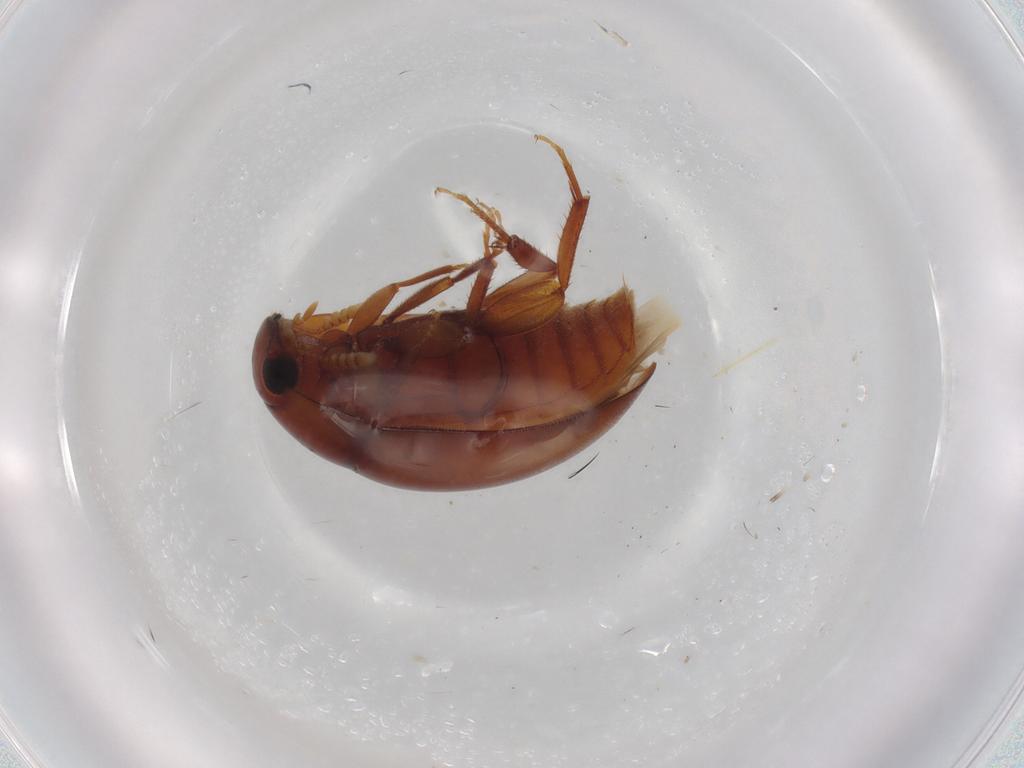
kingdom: Animalia
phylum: Arthropoda
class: Insecta
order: Coleoptera
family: Phalacridae
